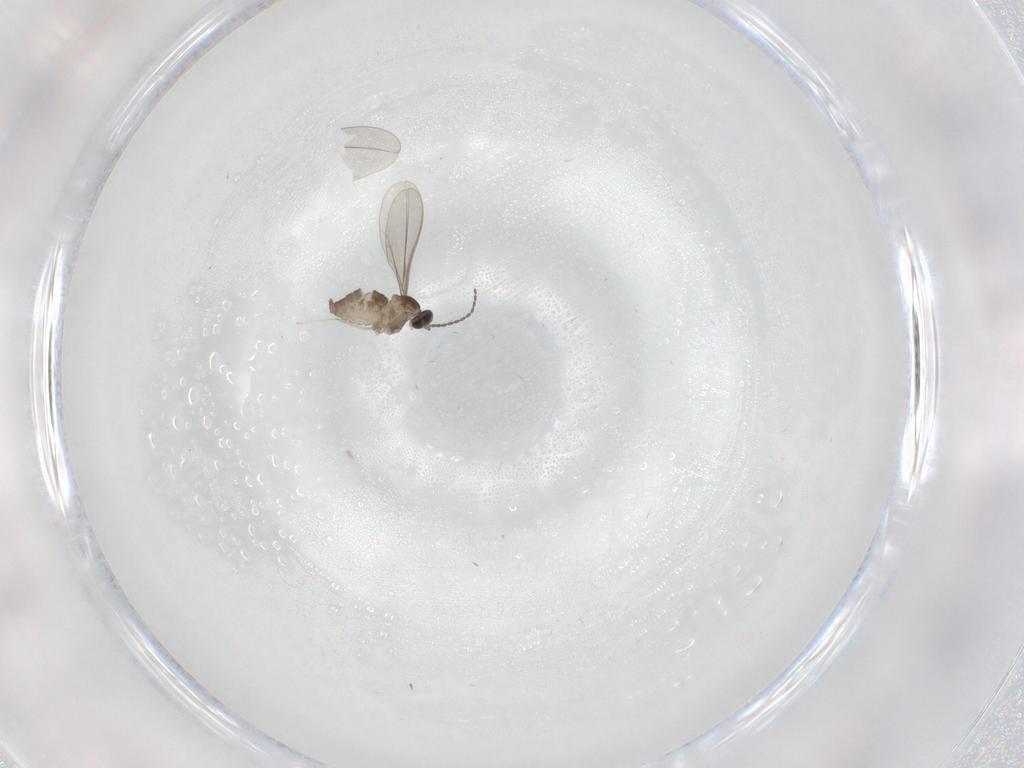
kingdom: Animalia
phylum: Arthropoda
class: Insecta
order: Diptera
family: Cecidomyiidae
